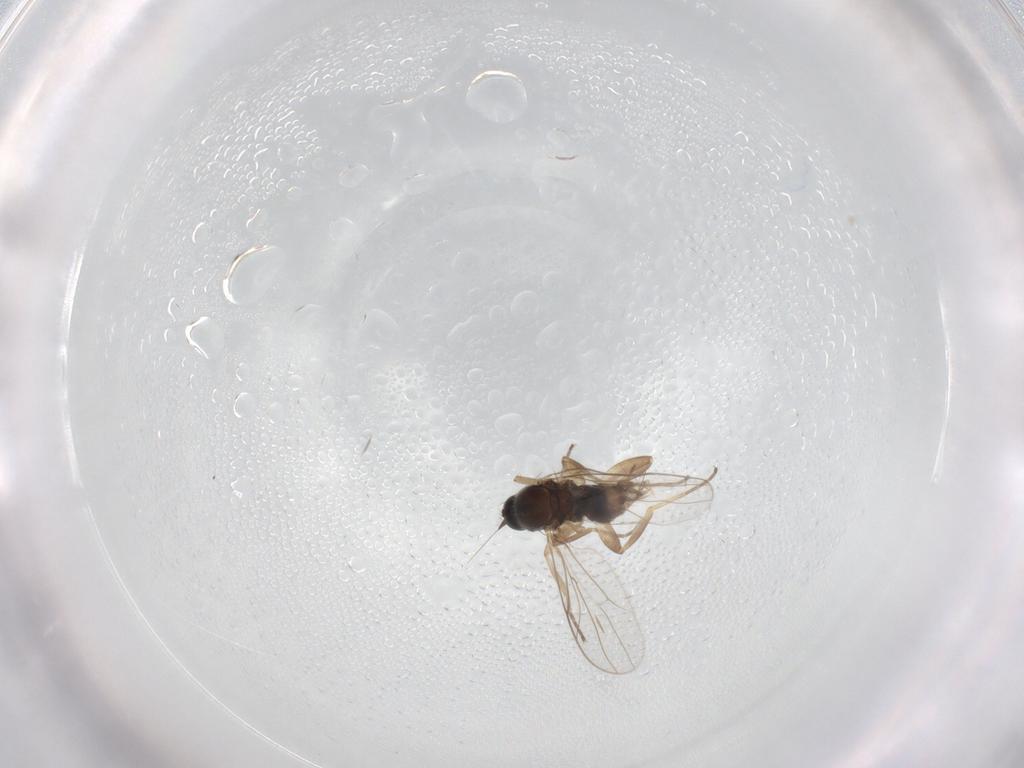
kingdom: Animalia
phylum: Arthropoda
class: Insecta
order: Diptera
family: Hybotidae
